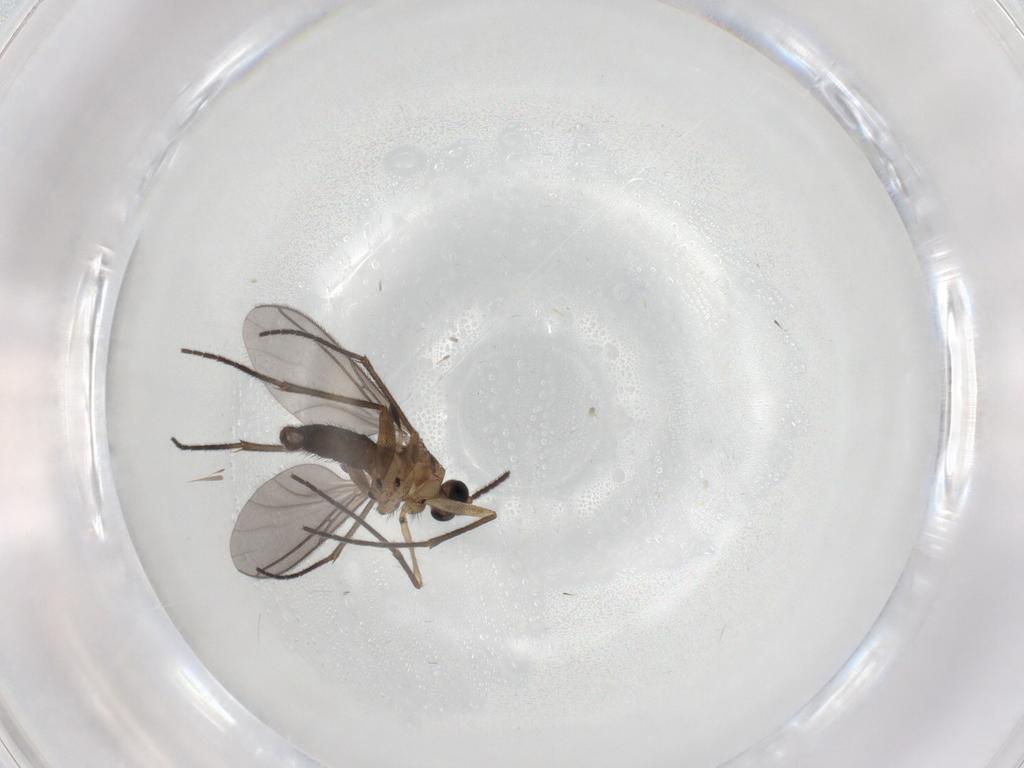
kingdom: Animalia
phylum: Arthropoda
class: Insecta
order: Diptera
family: Sciaridae
